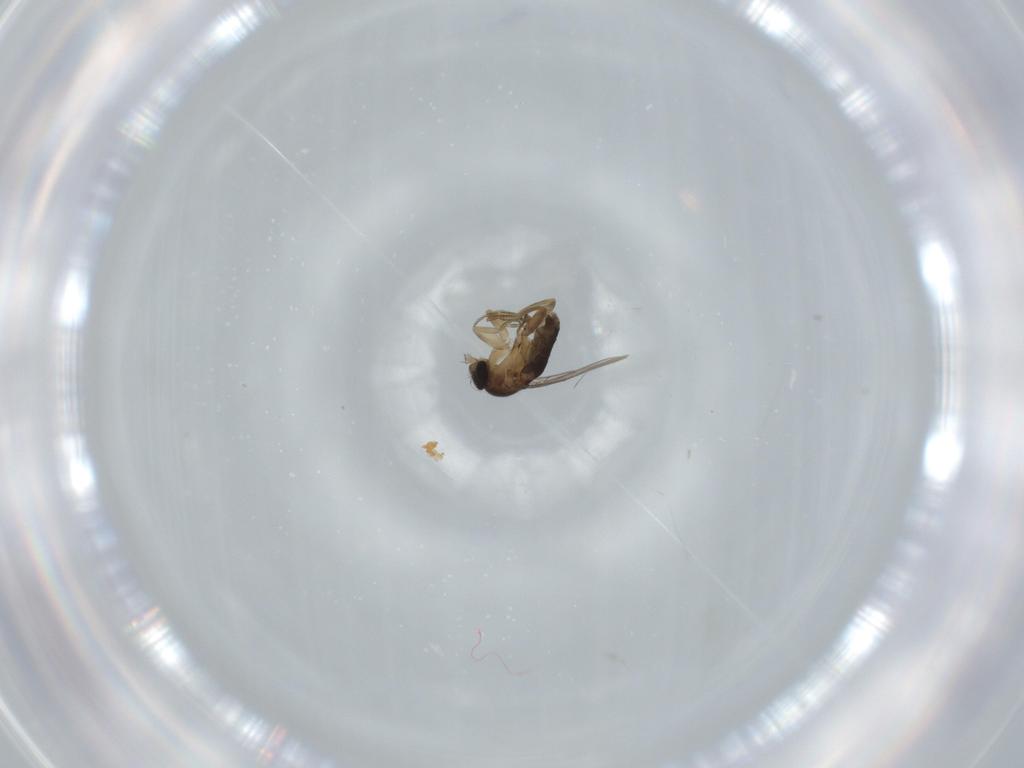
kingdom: Animalia
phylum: Arthropoda
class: Insecta
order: Diptera
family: Phoridae
